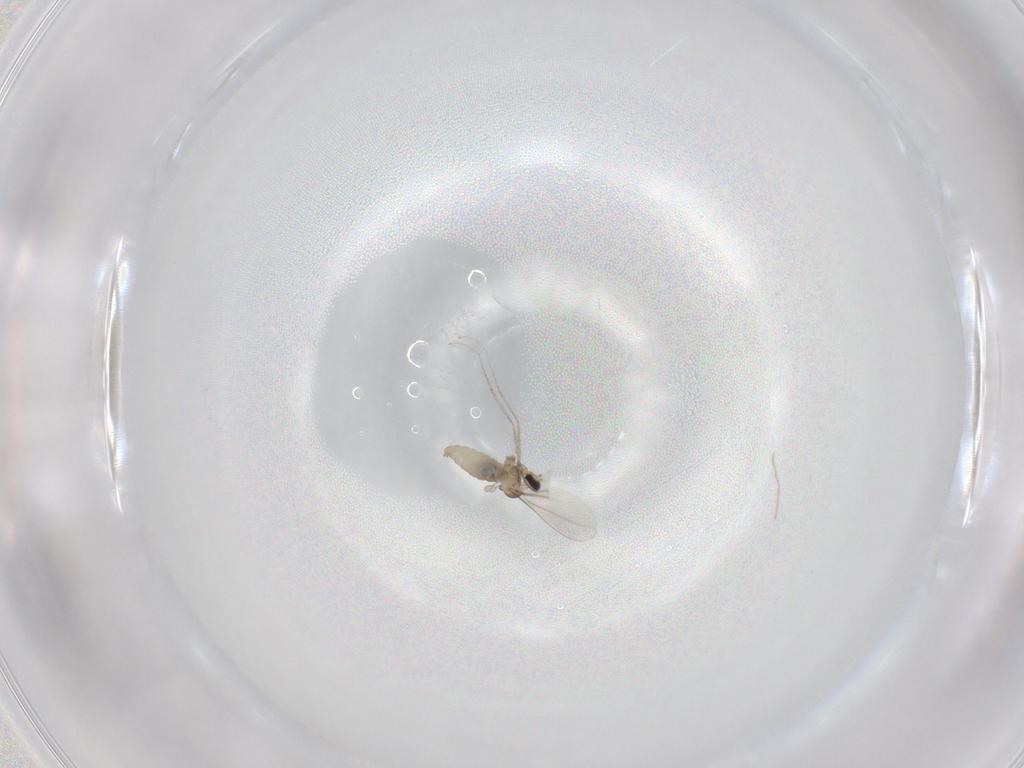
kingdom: Animalia
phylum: Arthropoda
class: Insecta
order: Diptera
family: Cecidomyiidae
